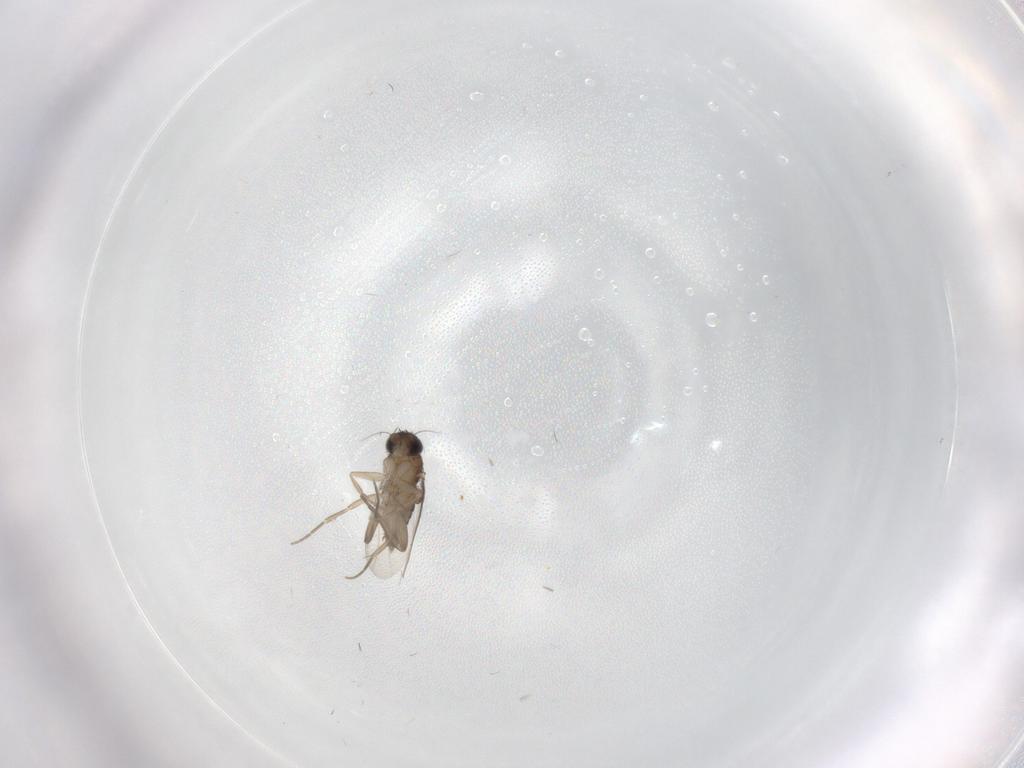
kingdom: Animalia
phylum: Arthropoda
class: Insecta
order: Diptera
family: Phoridae
